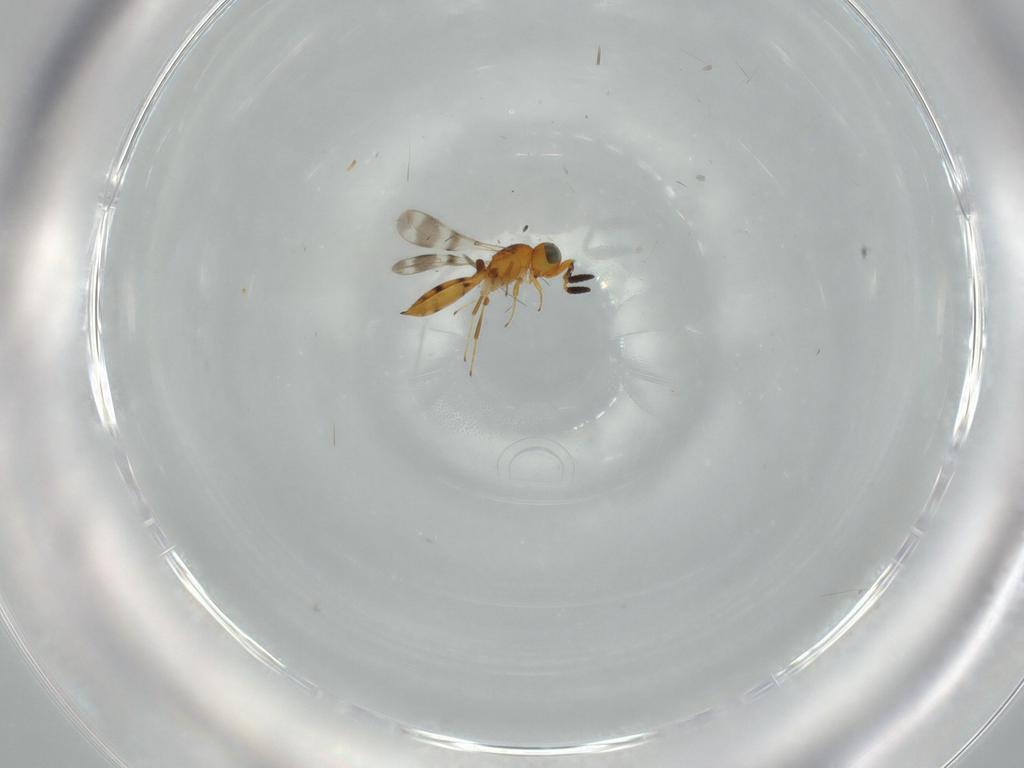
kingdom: Animalia
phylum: Arthropoda
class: Insecta
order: Hymenoptera
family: Scelionidae
